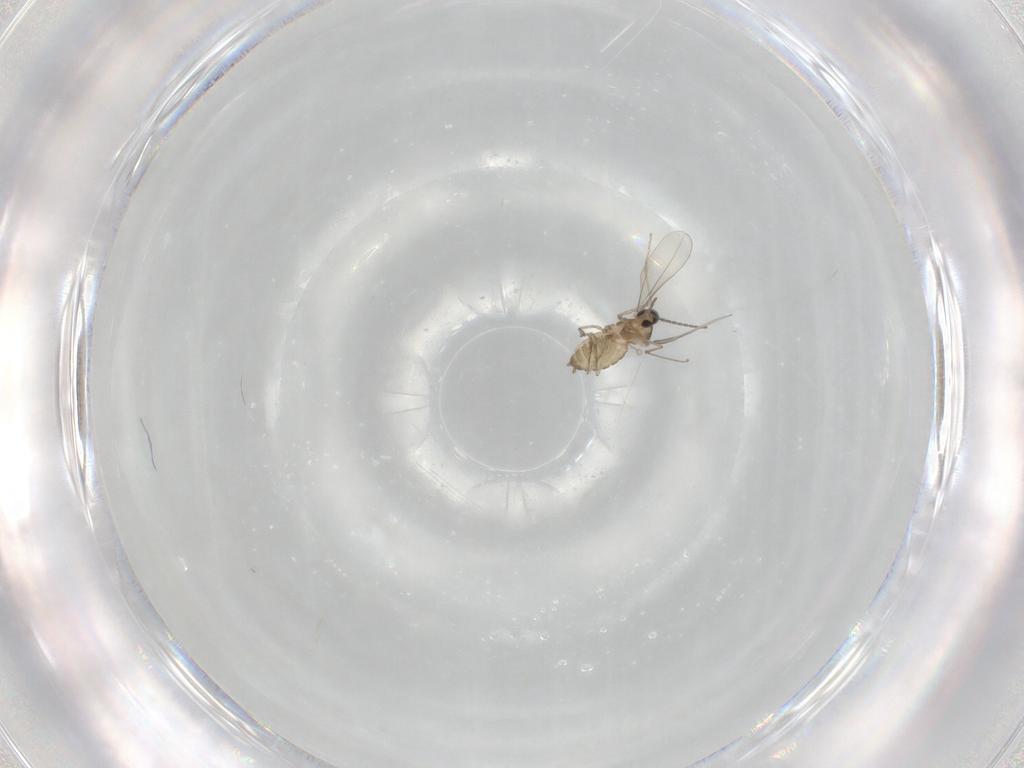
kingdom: Animalia
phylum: Arthropoda
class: Insecta
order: Diptera
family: Cecidomyiidae
